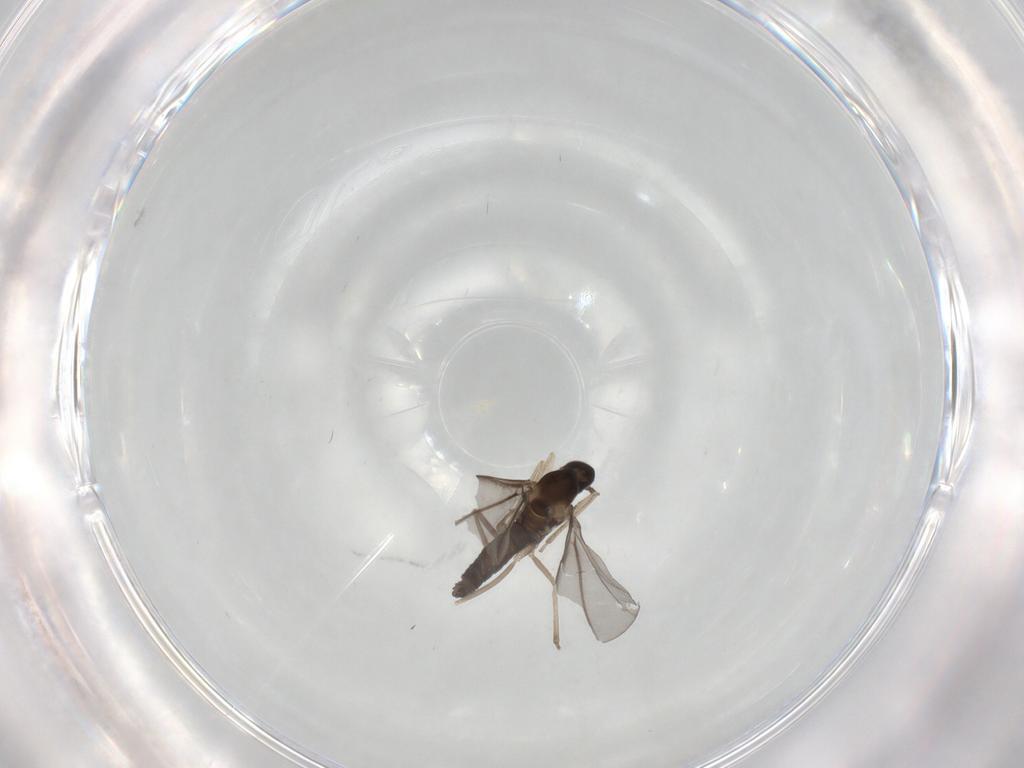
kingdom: Animalia
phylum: Arthropoda
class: Insecta
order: Diptera
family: Cecidomyiidae
